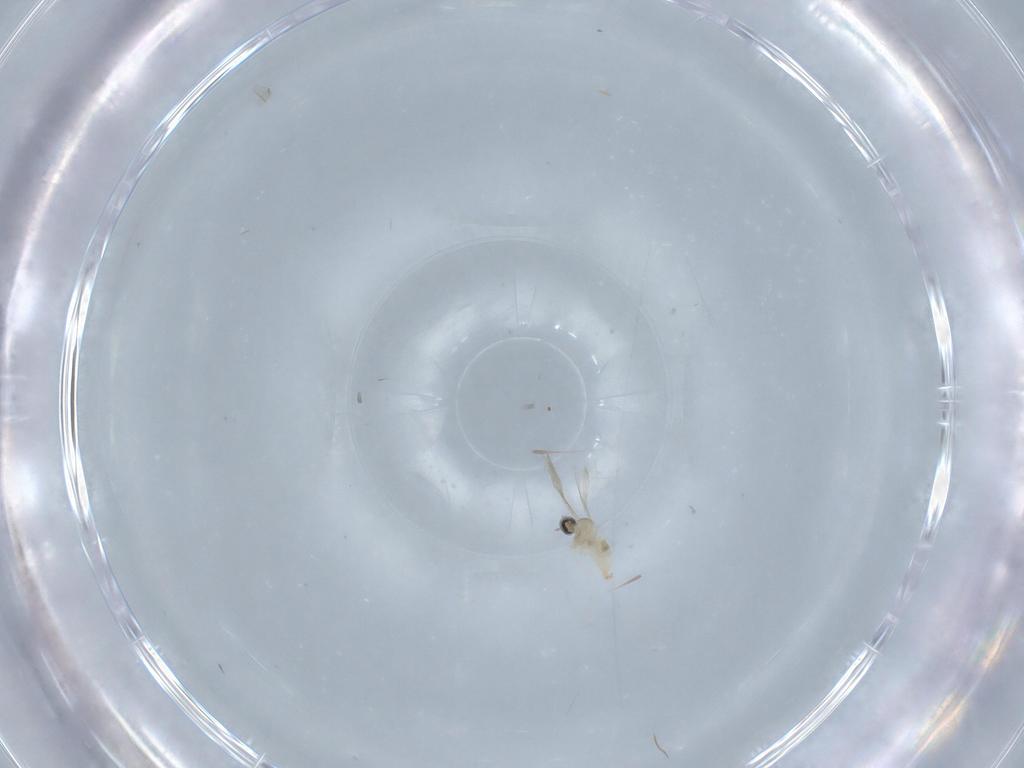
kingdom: Animalia
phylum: Arthropoda
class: Insecta
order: Diptera
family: Cecidomyiidae
